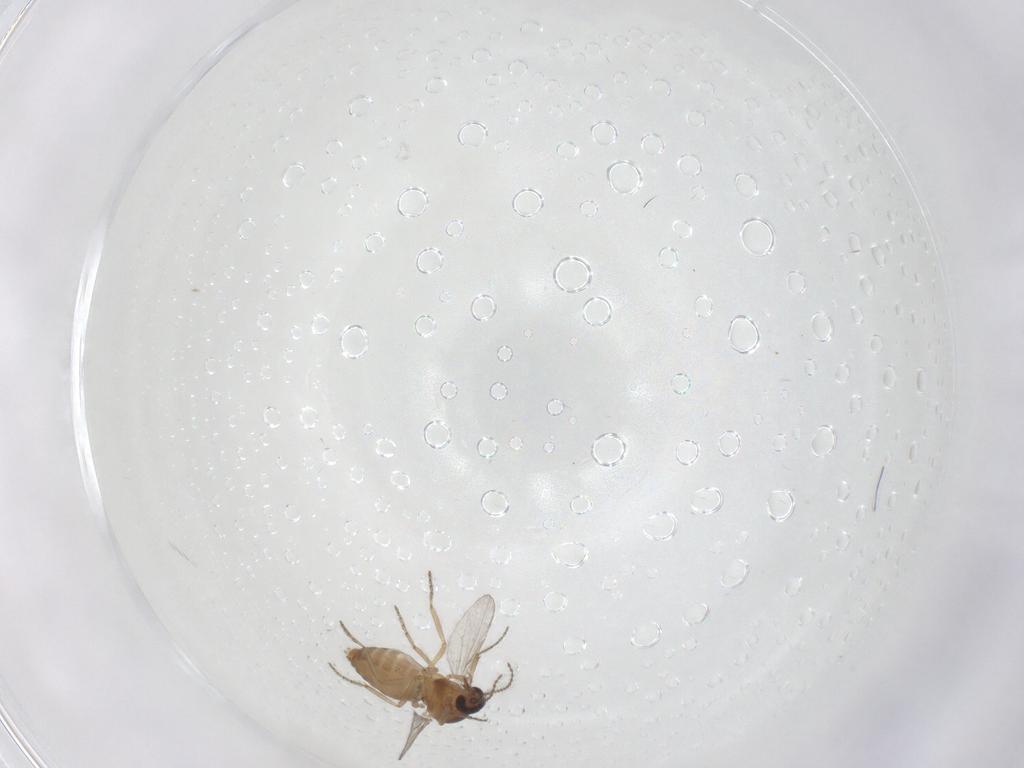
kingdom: Animalia
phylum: Arthropoda
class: Insecta
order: Diptera
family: Ceratopogonidae
